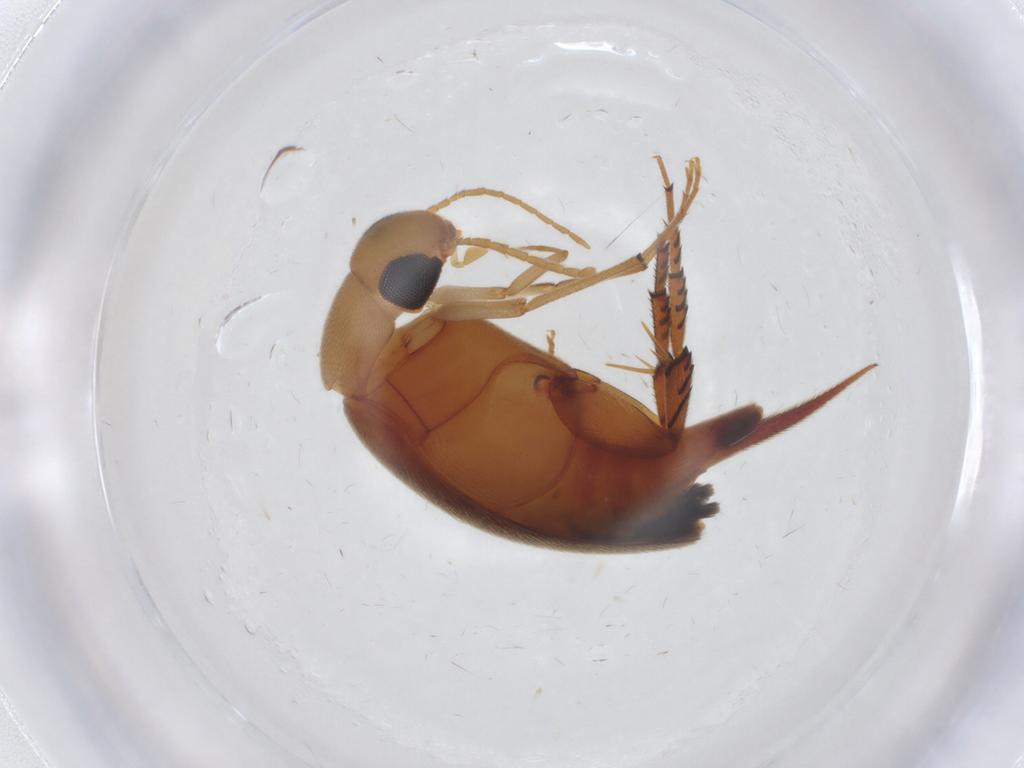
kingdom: Animalia
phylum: Arthropoda
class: Insecta
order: Coleoptera
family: Mordellidae
